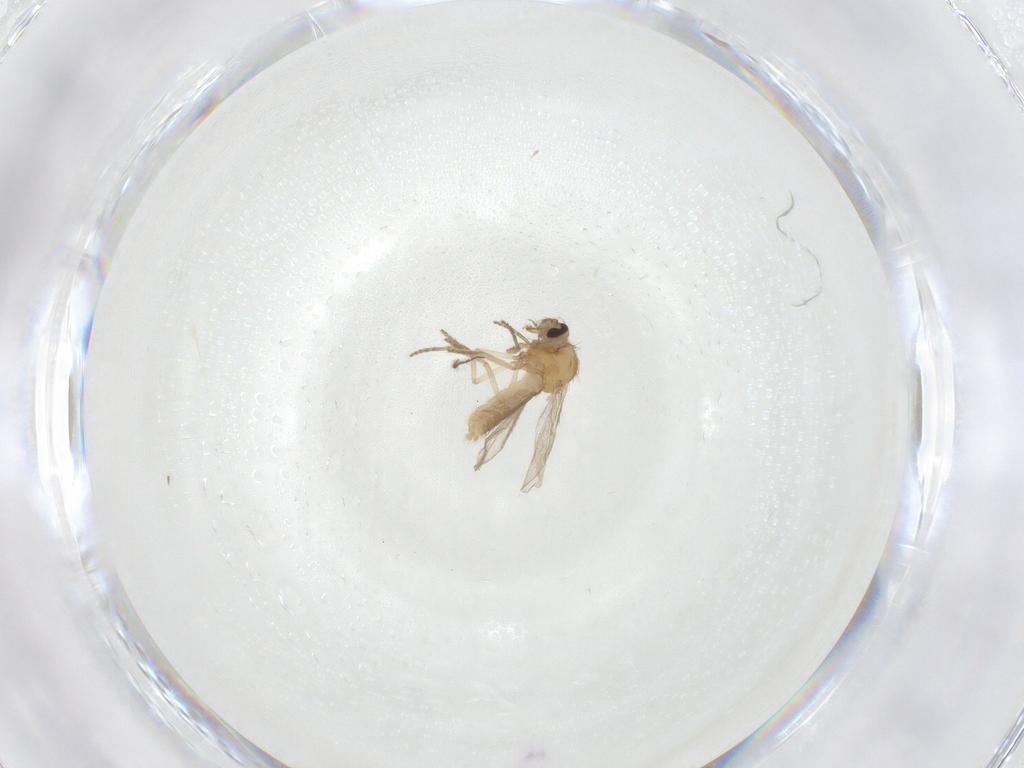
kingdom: Animalia
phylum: Arthropoda
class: Insecta
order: Diptera
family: Ceratopogonidae
